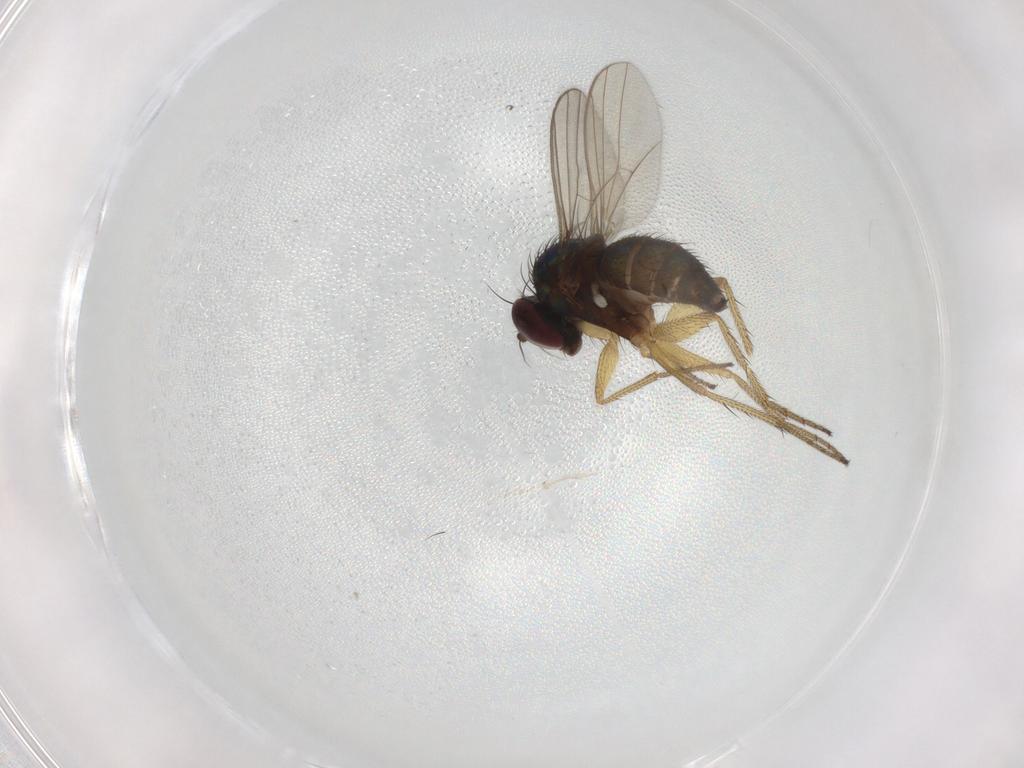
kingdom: Animalia
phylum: Arthropoda
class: Insecta
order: Diptera
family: Dolichopodidae
